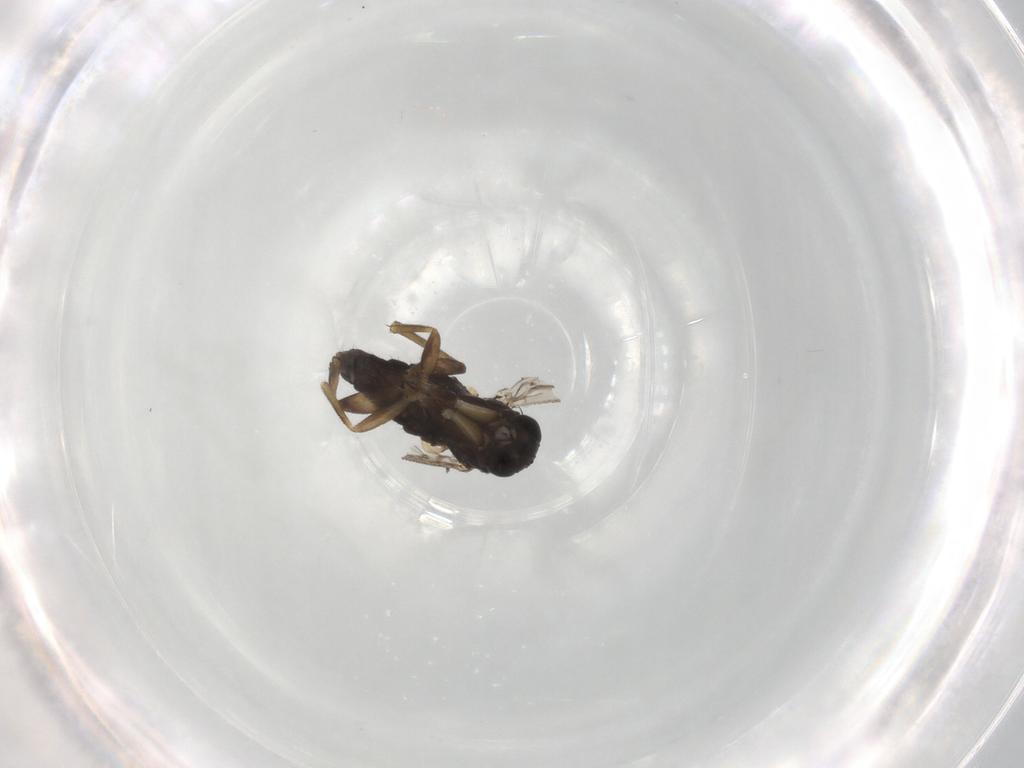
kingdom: Animalia
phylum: Arthropoda
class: Insecta
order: Diptera
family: Phoridae
